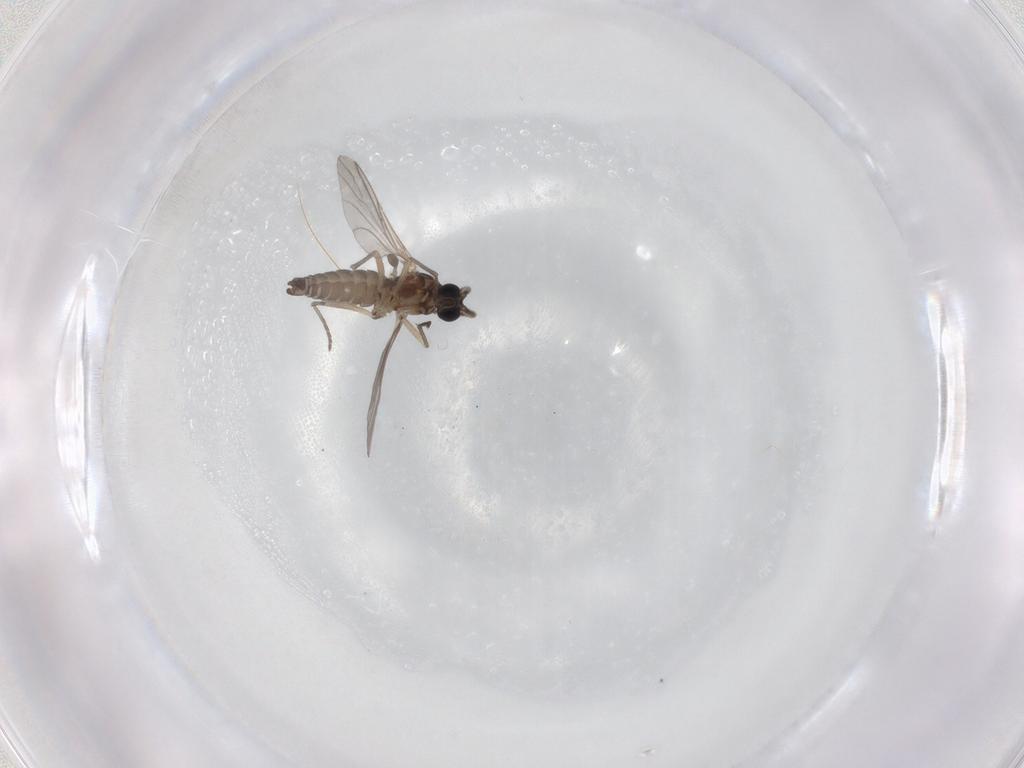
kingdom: Animalia
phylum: Arthropoda
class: Insecta
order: Diptera
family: Sciaridae
